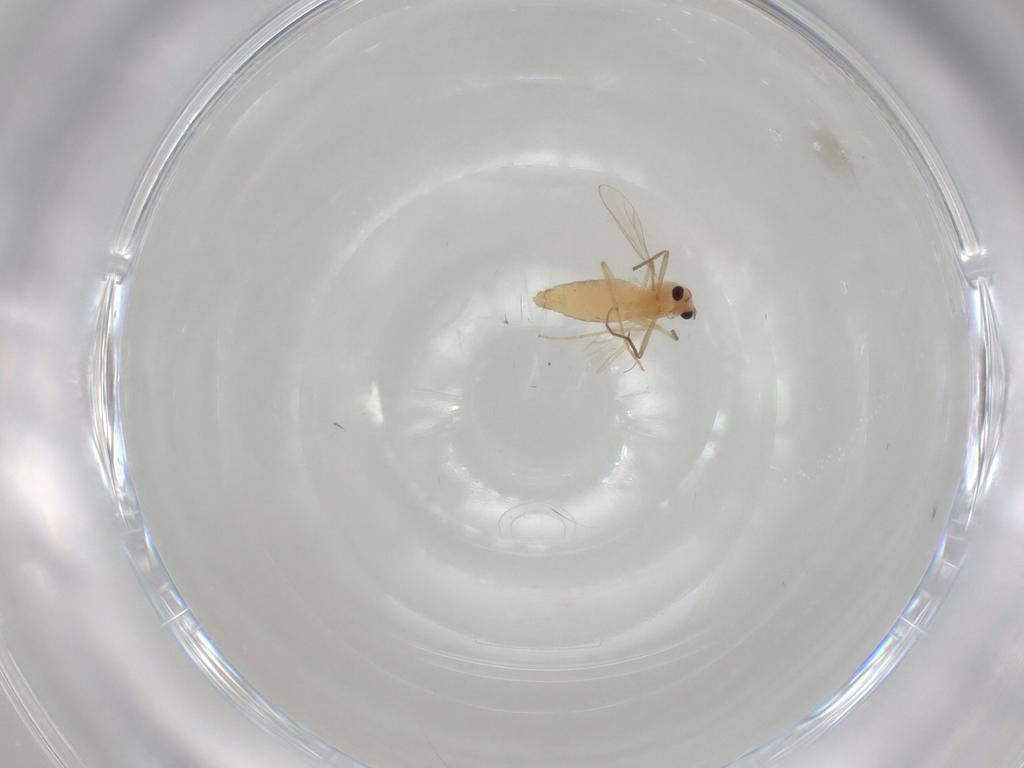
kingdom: Animalia
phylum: Arthropoda
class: Insecta
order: Diptera
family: Chironomidae
